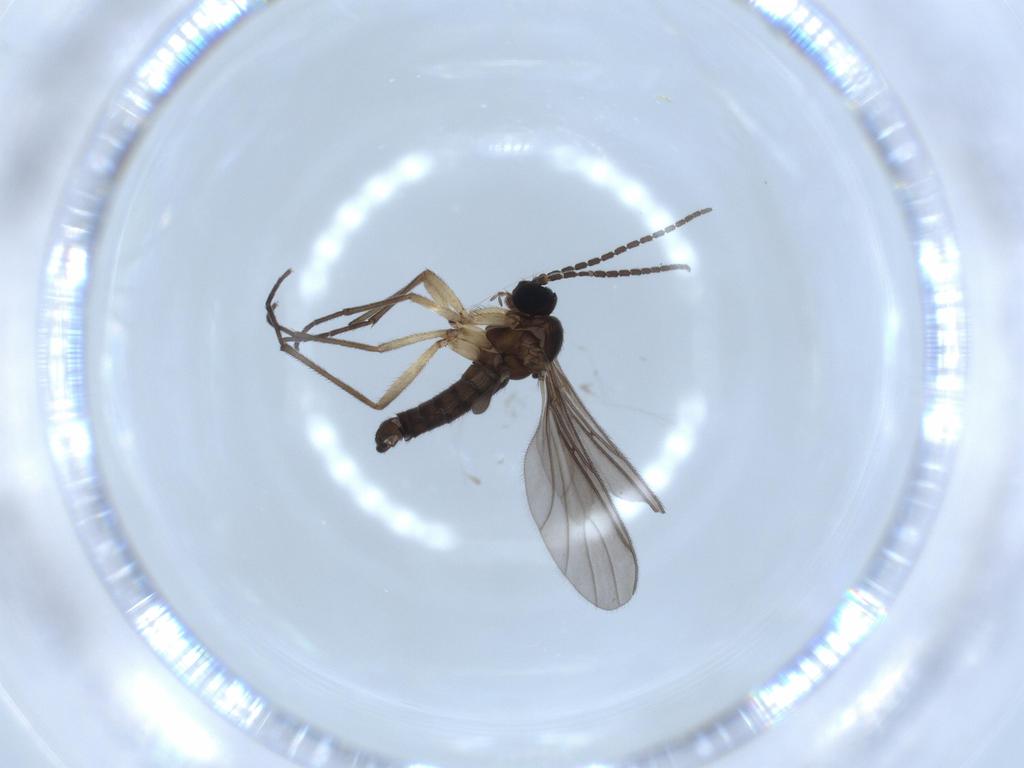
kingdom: Animalia
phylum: Arthropoda
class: Insecta
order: Diptera
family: Sciaridae
